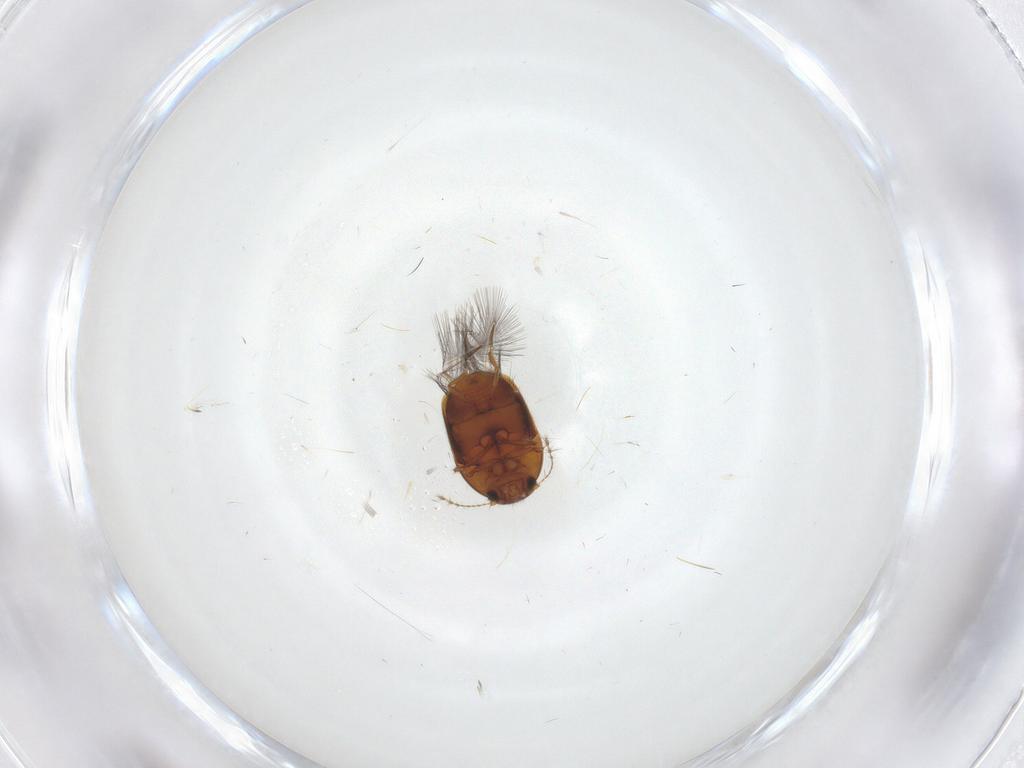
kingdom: Animalia
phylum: Arthropoda
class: Insecta
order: Coleoptera
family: Ptiliidae
